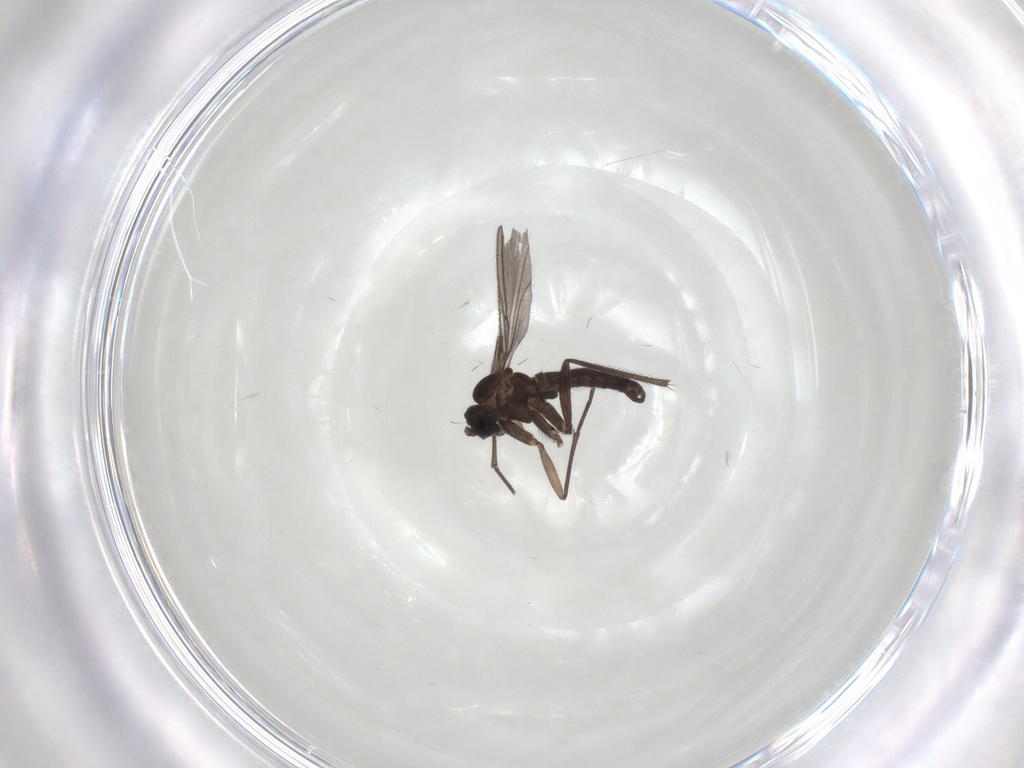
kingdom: Animalia
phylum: Arthropoda
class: Insecta
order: Diptera
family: Sciaridae
